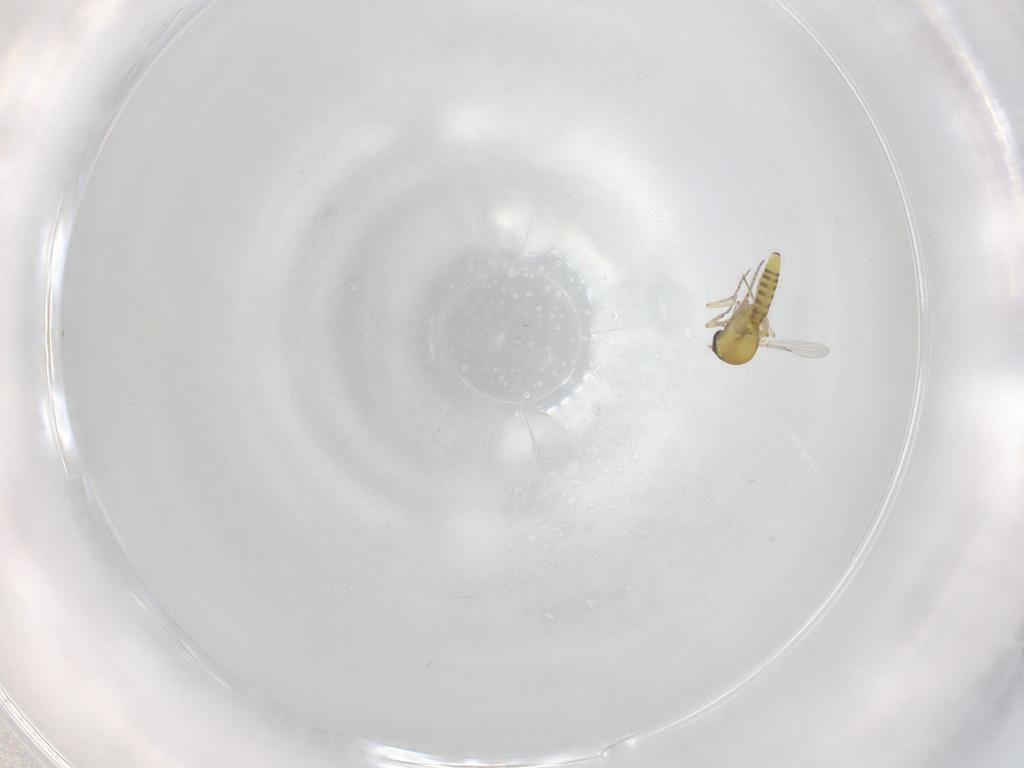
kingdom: Animalia
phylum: Arthropoda
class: Insecta
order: Diptera
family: Ceratopogonidae
